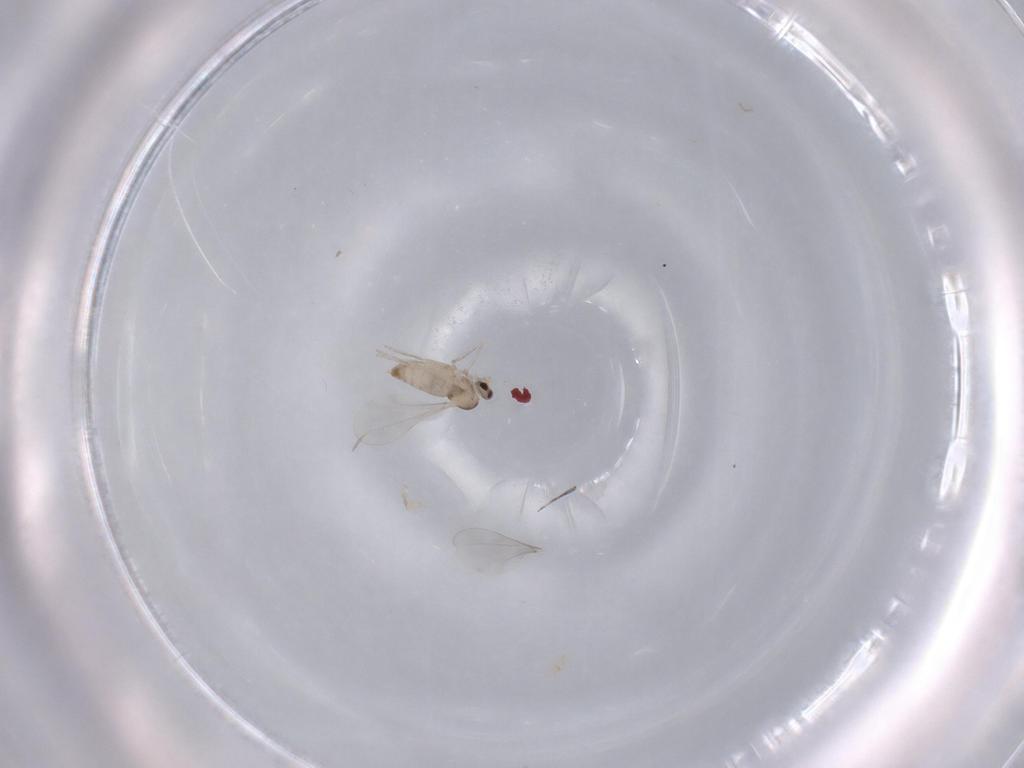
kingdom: Animalia
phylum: Arthropoda
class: Insecta
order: Diptera
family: Cecidomyiidae
